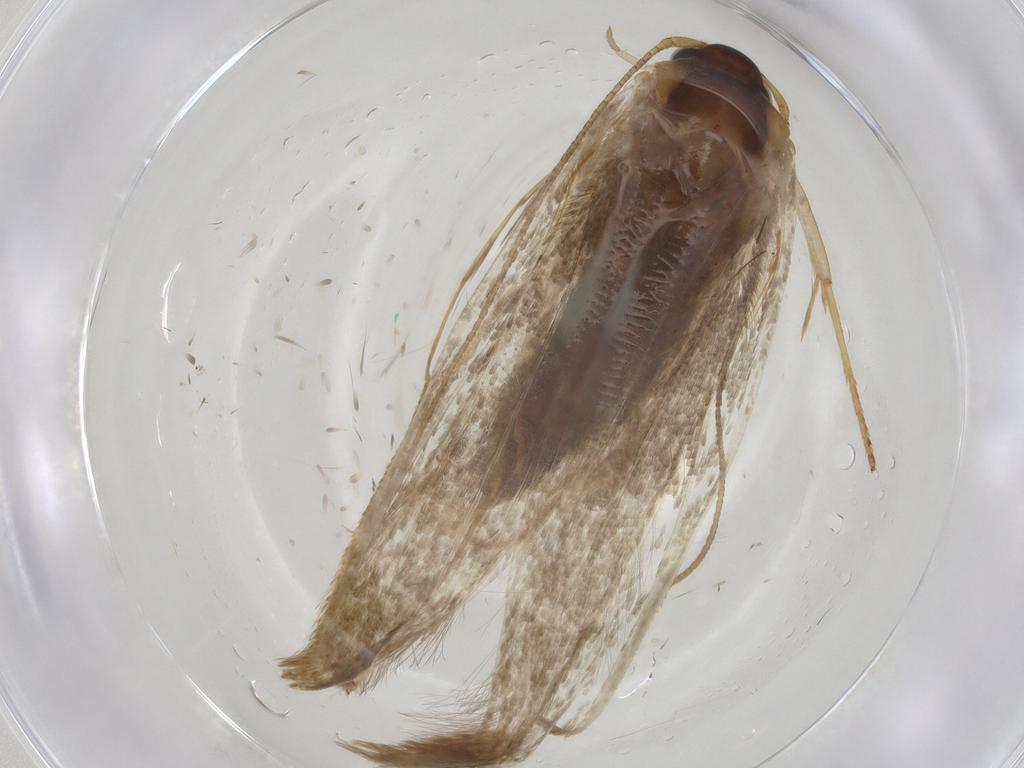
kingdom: Animalia
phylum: Arthropoda
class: Insecta
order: Lepidoptera
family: Blastobasidae
